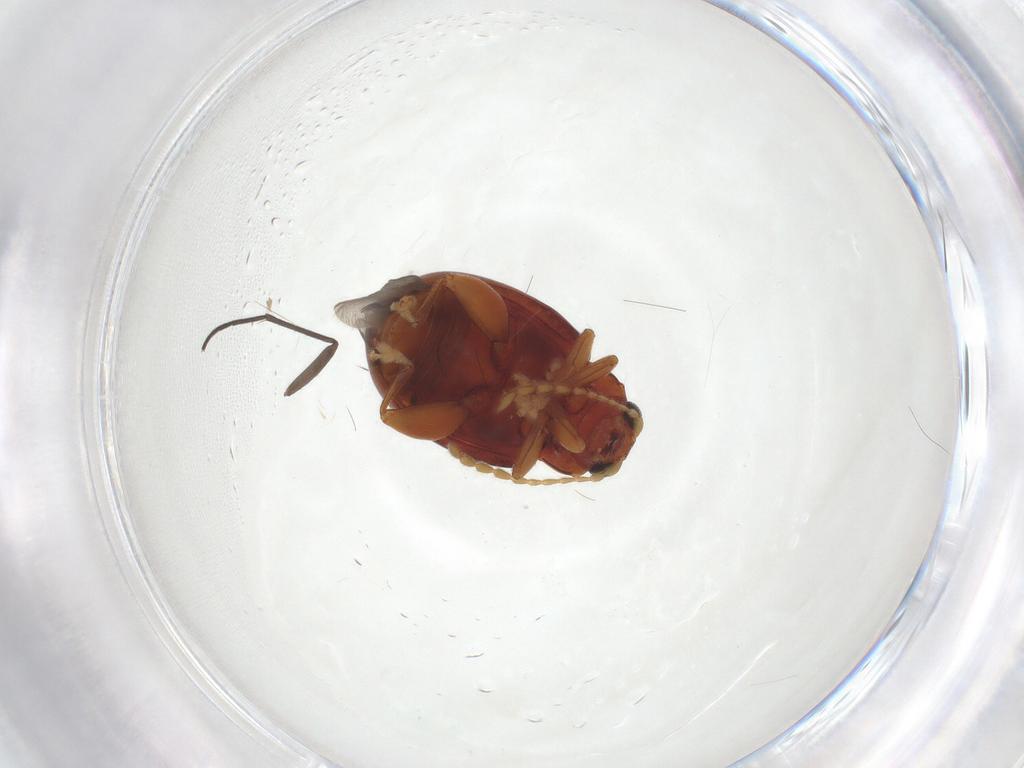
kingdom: Animalia
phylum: Arthropoda
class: Insecta
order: Coleoptera
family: Chrysomelidae
